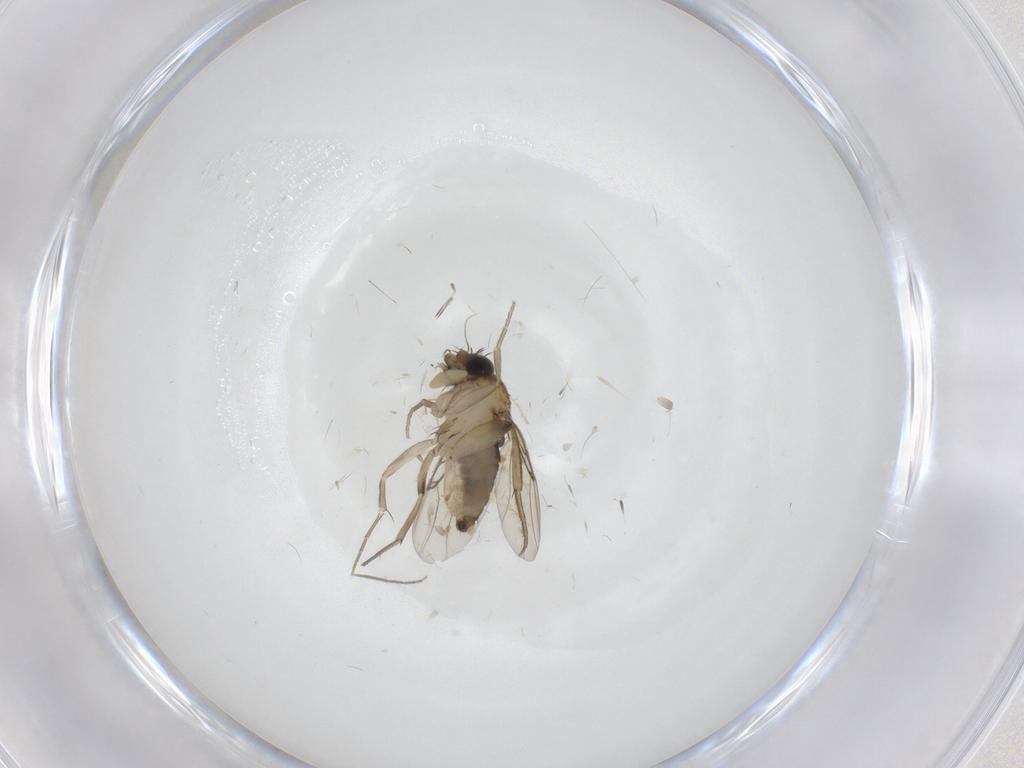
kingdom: Animalia
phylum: Arthropoda
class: Insecta
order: Diptera
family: Phoridae
